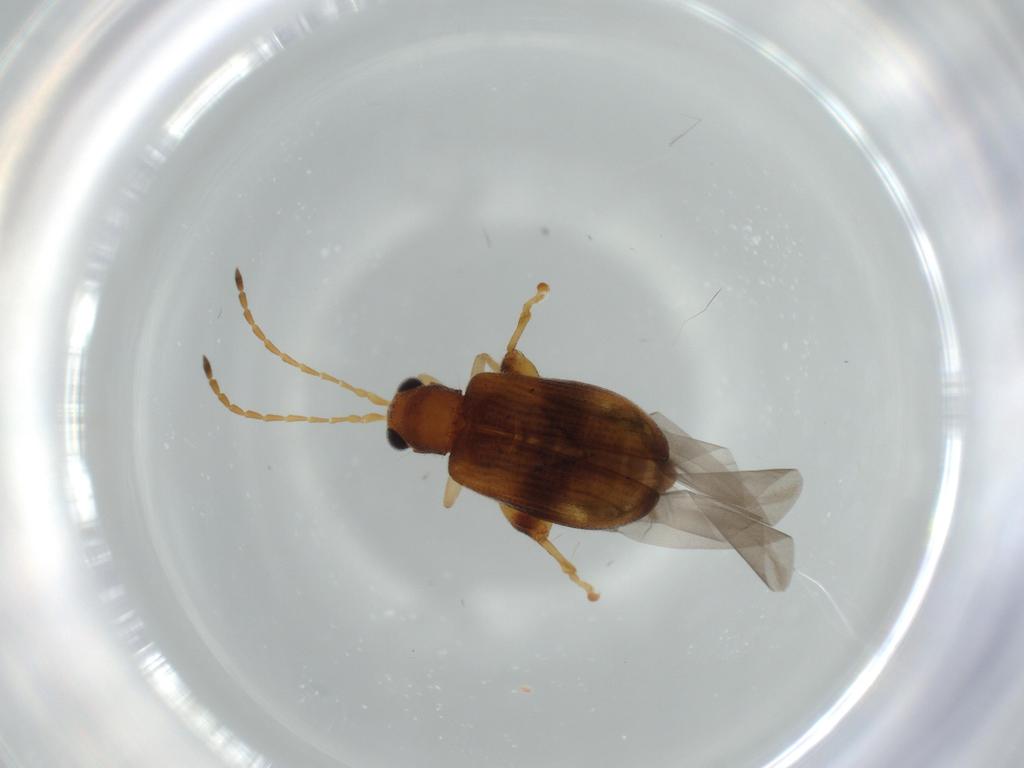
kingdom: Animalia
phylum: Arthropoda
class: Insecta
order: Coleoptera
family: Chrysomelidae
